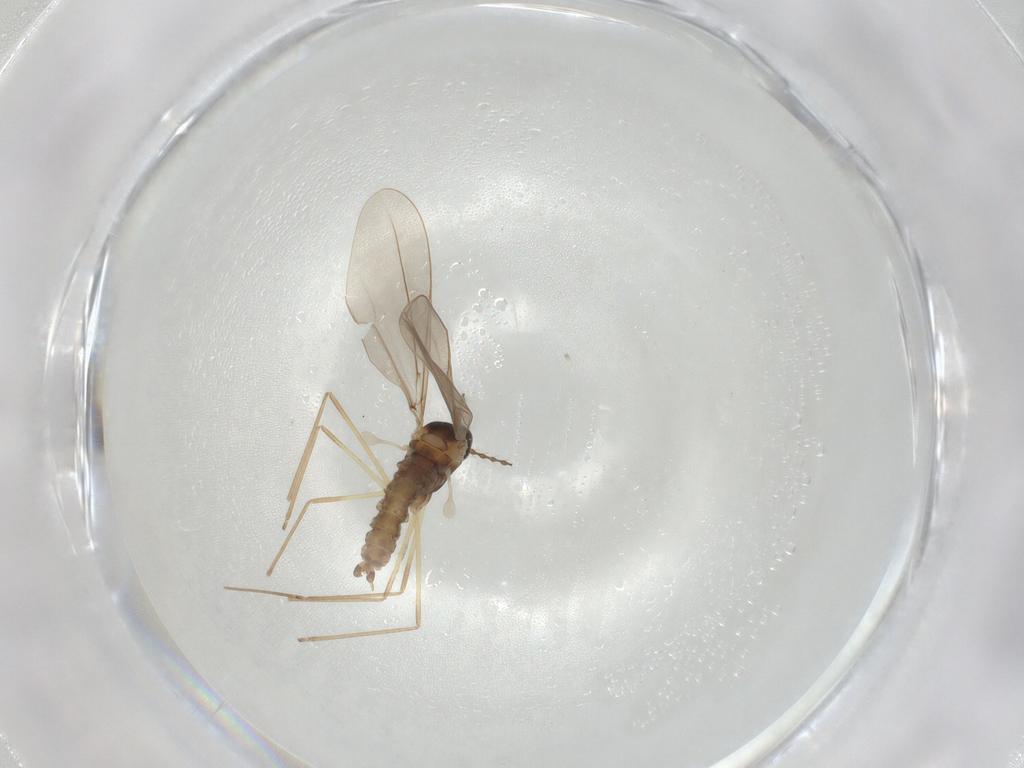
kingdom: Animalia
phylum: Arthropoda
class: Insecta
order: Diptera
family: Cecidomyiidae
